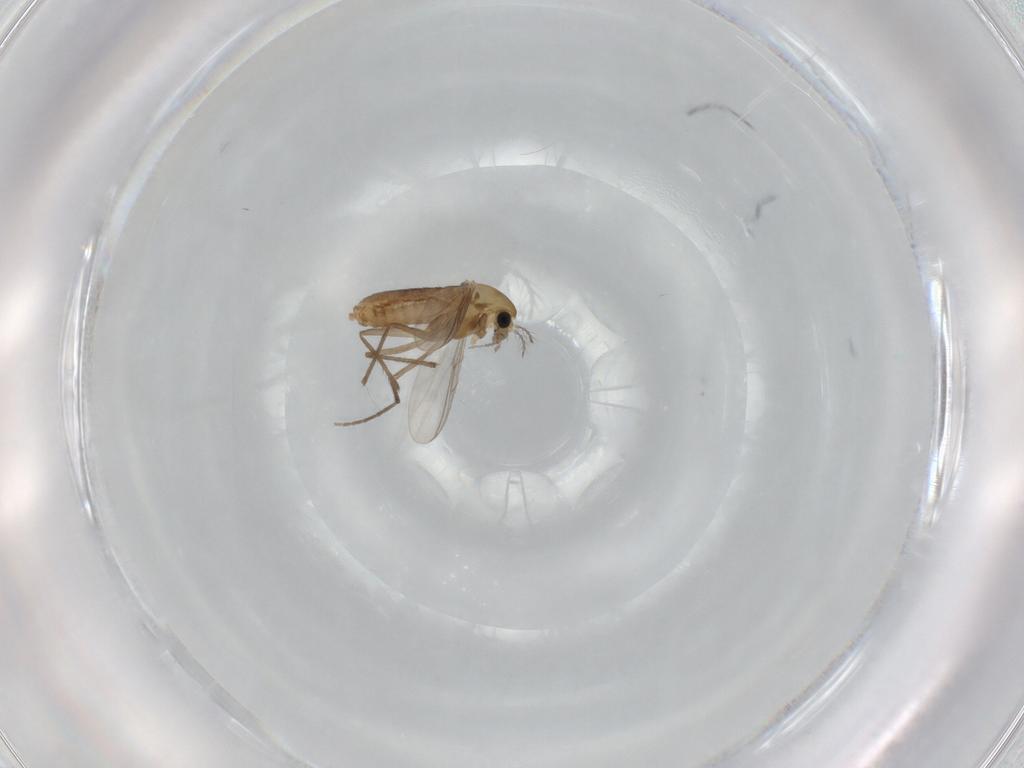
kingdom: Animalia
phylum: Arthropoda
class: Insecta
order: Diptera
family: Chironomidae
